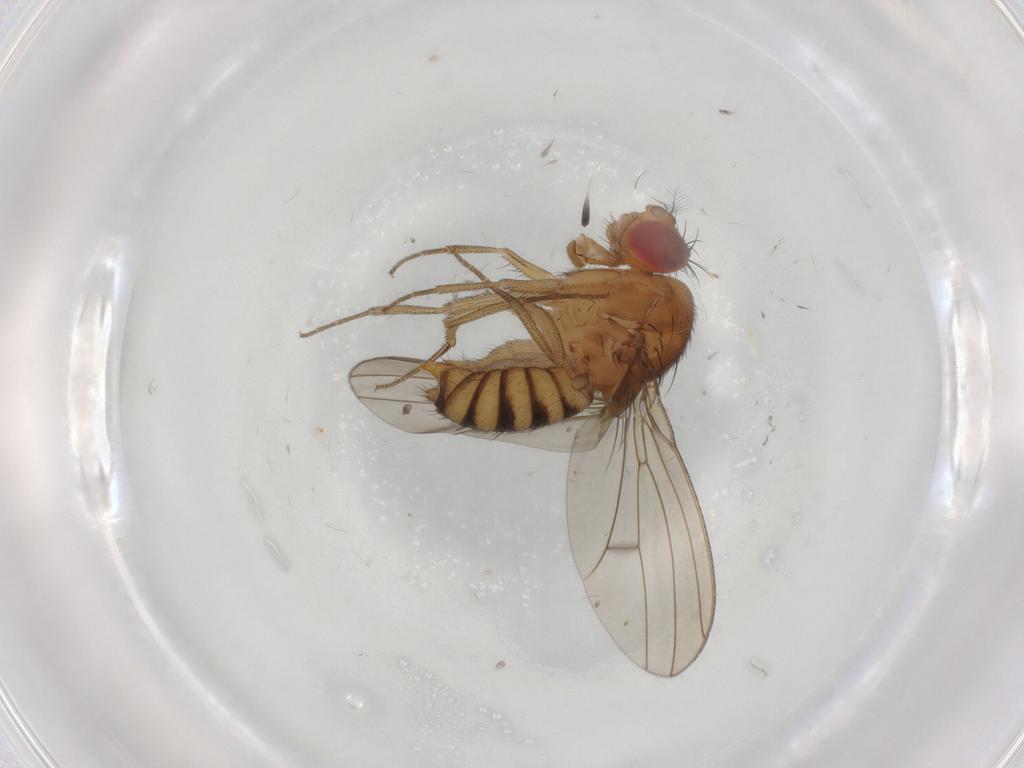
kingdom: Animalia
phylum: Arthropoda
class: Insecta
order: Diptera
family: Drosophilidae
